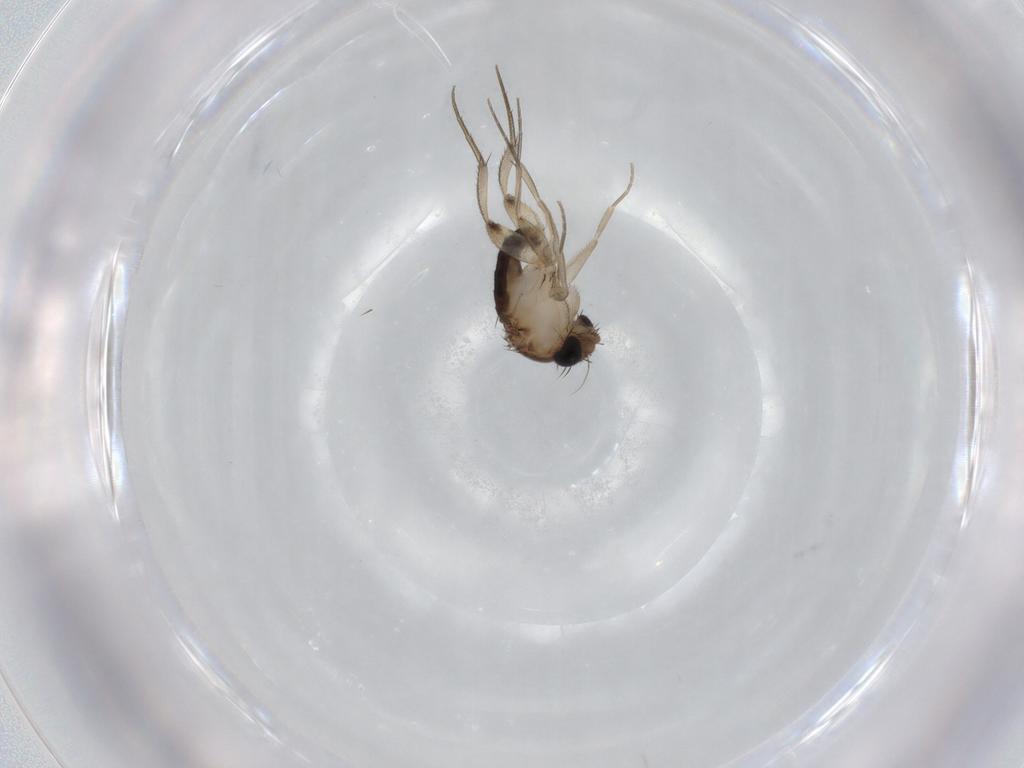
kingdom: Animalia
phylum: Arthropoda
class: Insecta
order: Diptera
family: Phoridae
